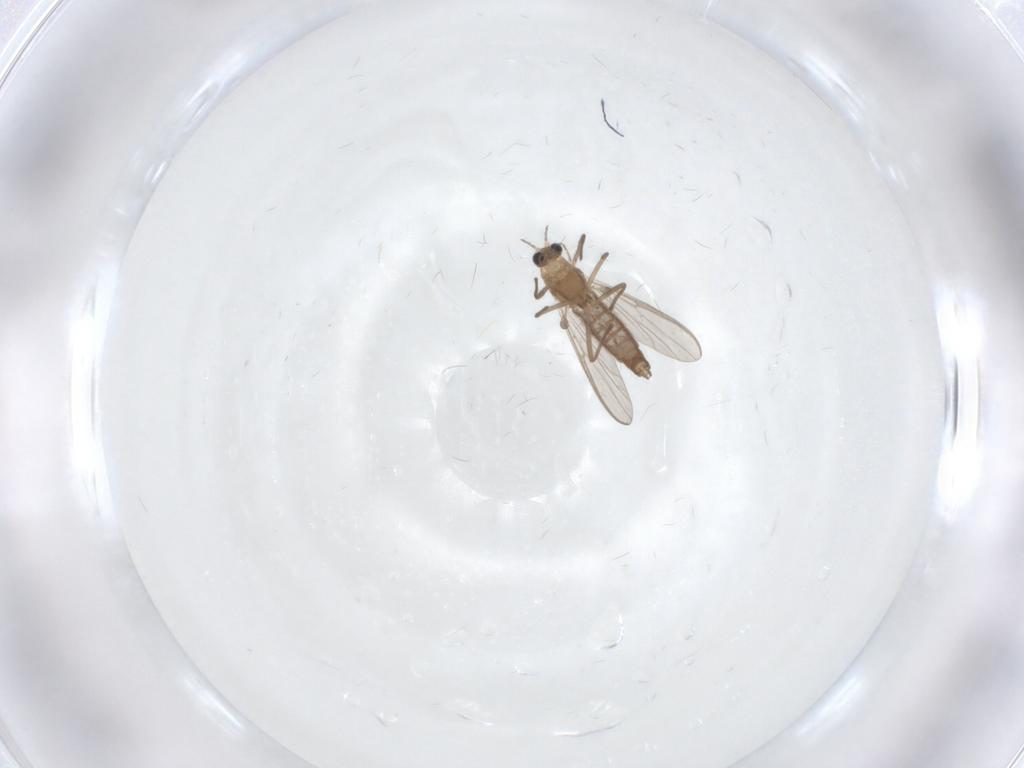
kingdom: Animalia
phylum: Arthropoda
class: Insecta
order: Diptera
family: Chironomidae
